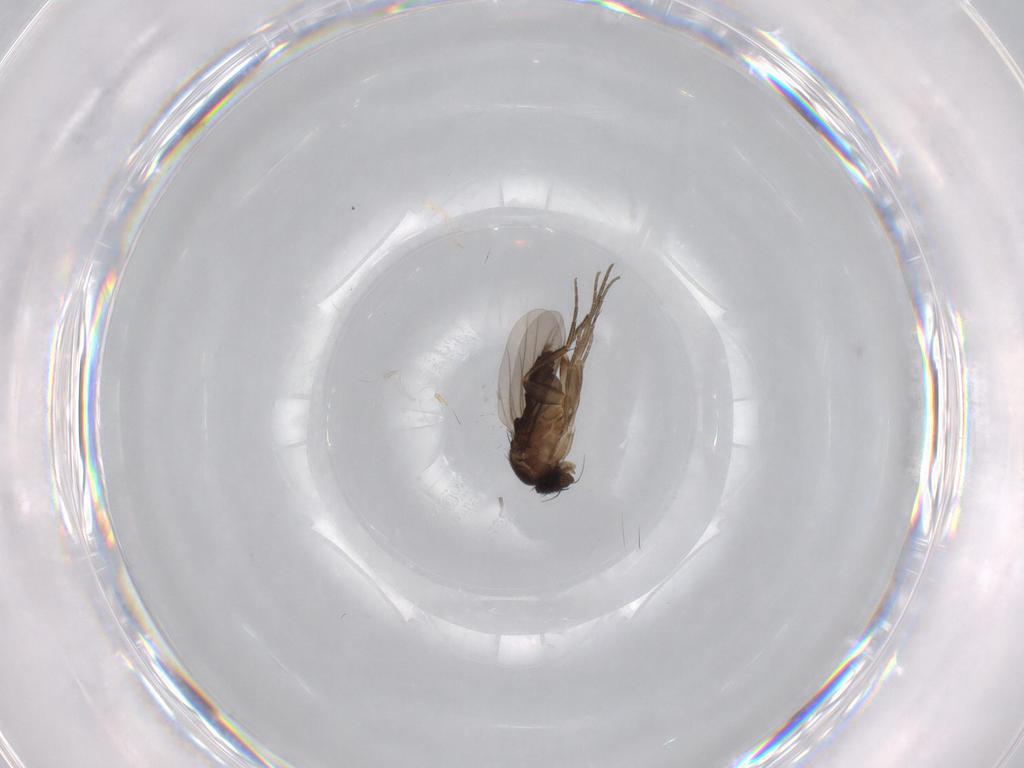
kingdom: Animalia
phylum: Arthropoda
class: Insecta
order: Diptera
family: Phoridae
